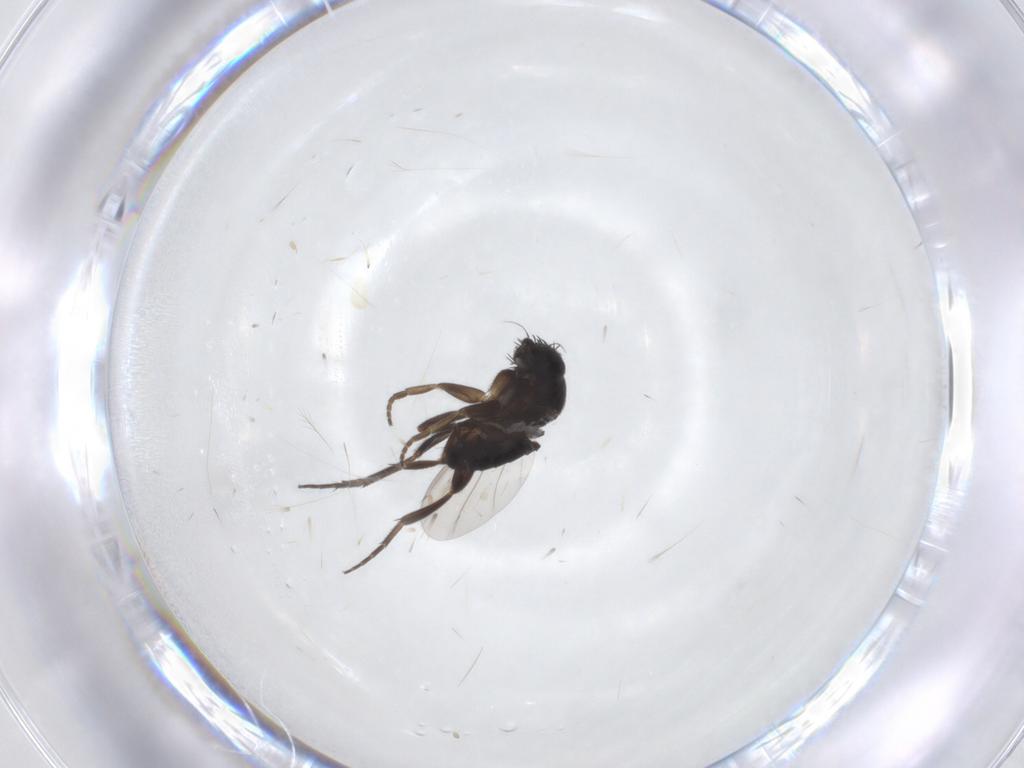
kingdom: Animalia
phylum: Arthropoda
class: Insecta
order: Diptera
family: Phoridae
